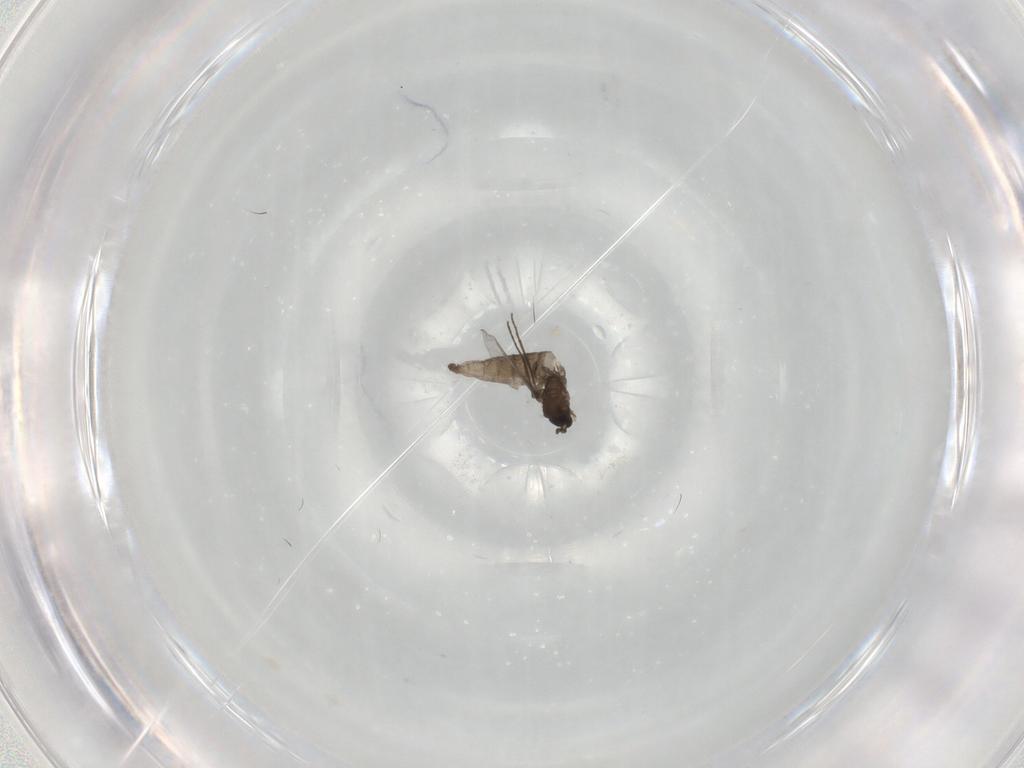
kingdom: Animalia
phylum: Arthropoda
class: Insecta
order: Diptera
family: Sciaridae
